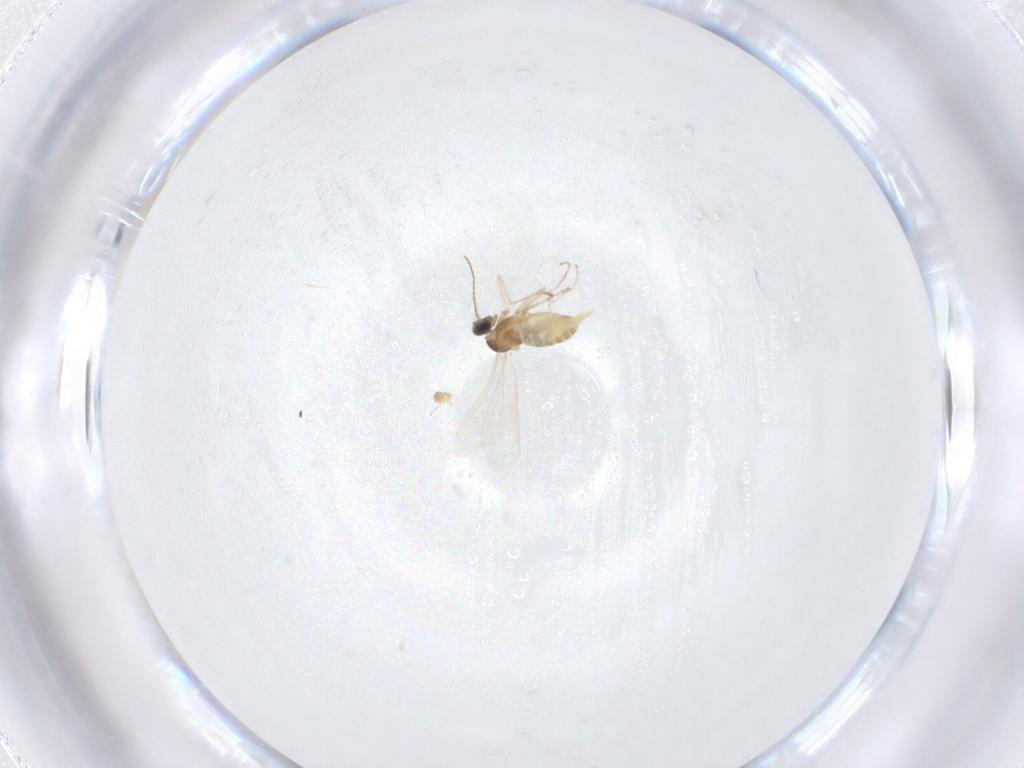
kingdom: Animalia
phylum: Arthropoda
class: Insecta
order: Diptera
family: Cecidomyiidae
